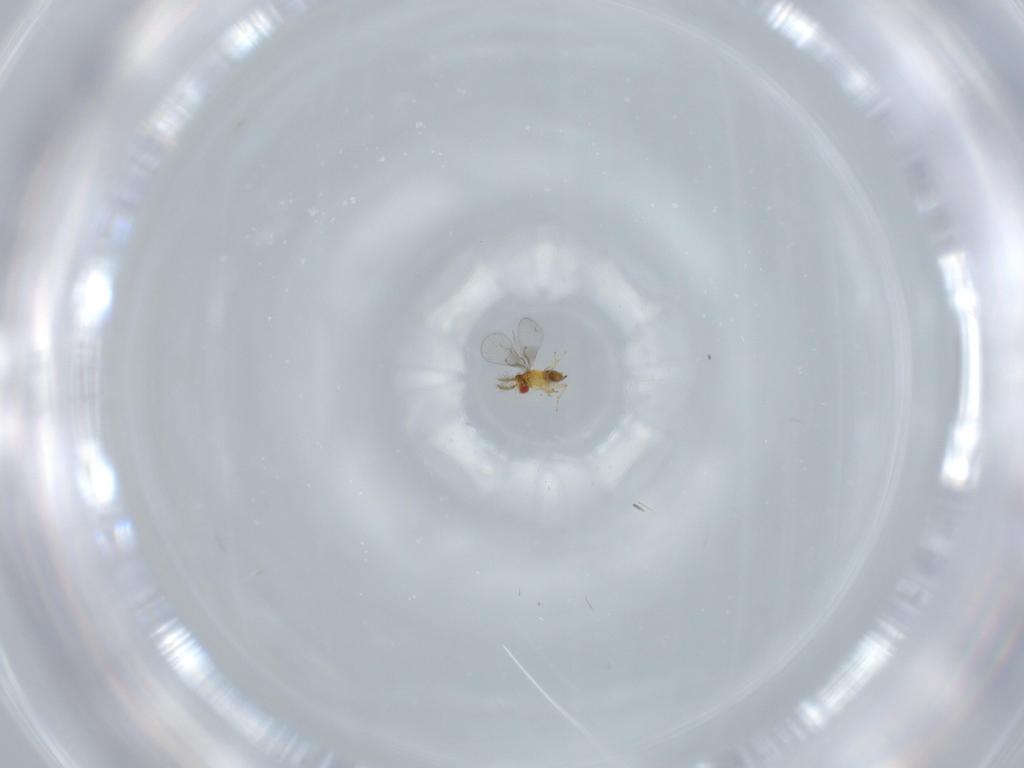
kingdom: Animalia
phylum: Arthropoda
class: Insecta
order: Hymenoptera
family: Trichogrammatidae
